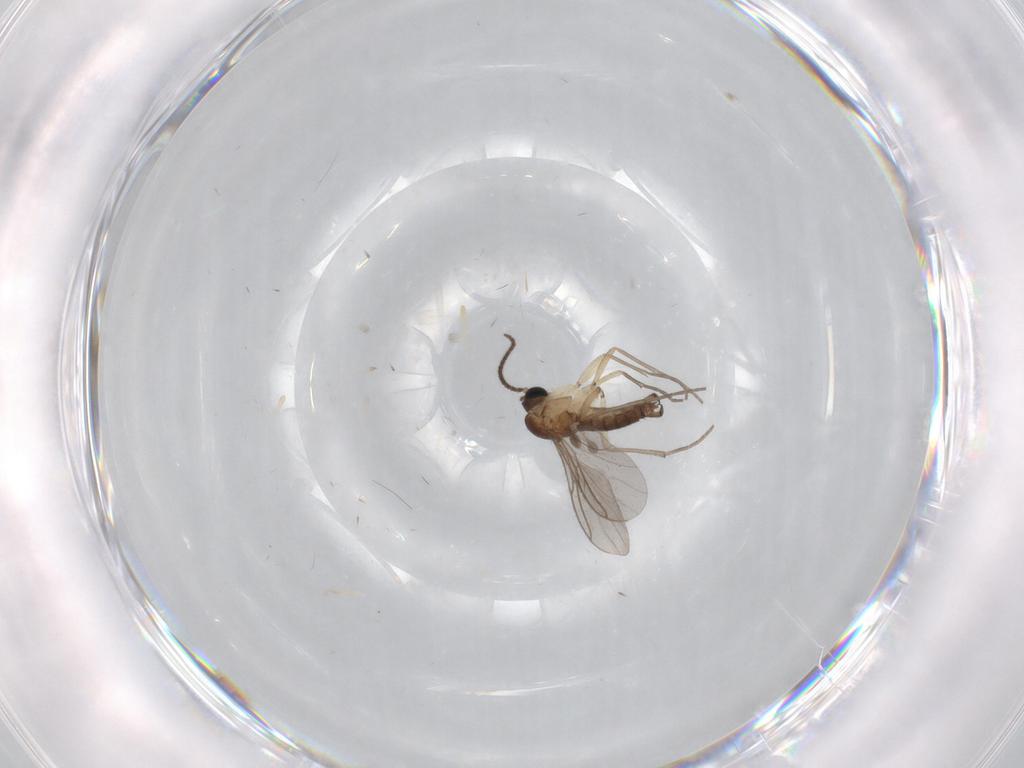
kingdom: Animalia
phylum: Arthropoda
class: Insecta
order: Diptera
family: Sciaridae
